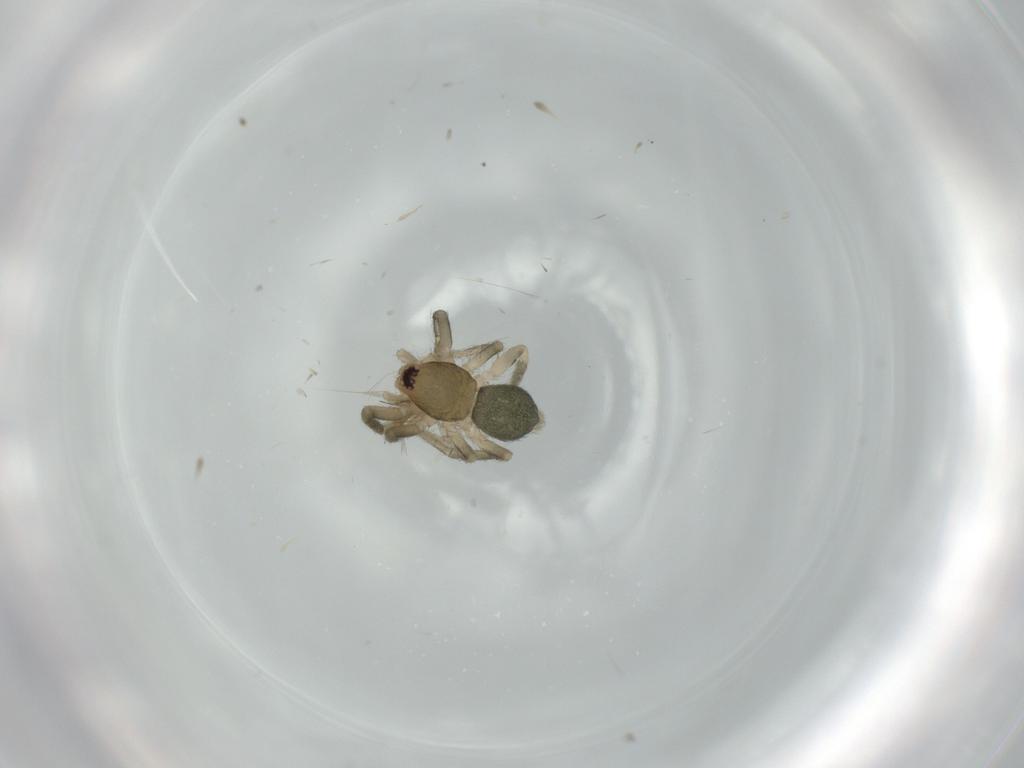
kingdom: Animalia
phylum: Arthropoda
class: Arachnida
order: Araneae
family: Gnaphosidae
